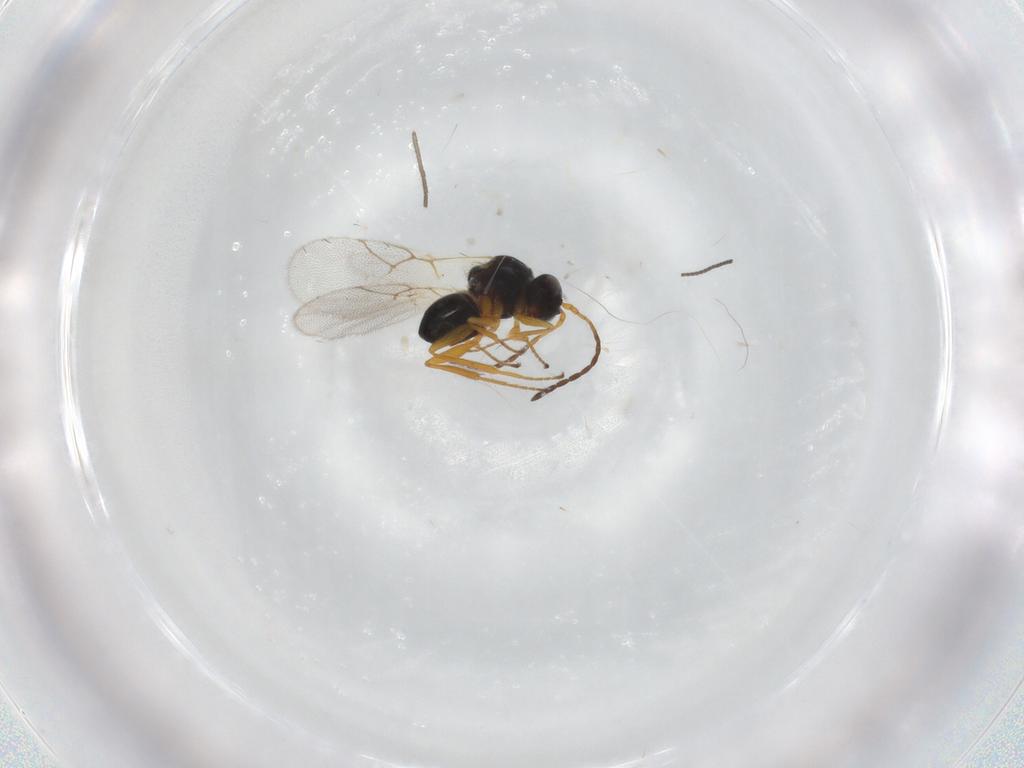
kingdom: Animalia
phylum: Arthropoda
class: Insecta
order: Hymenoptera
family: Figitidae
